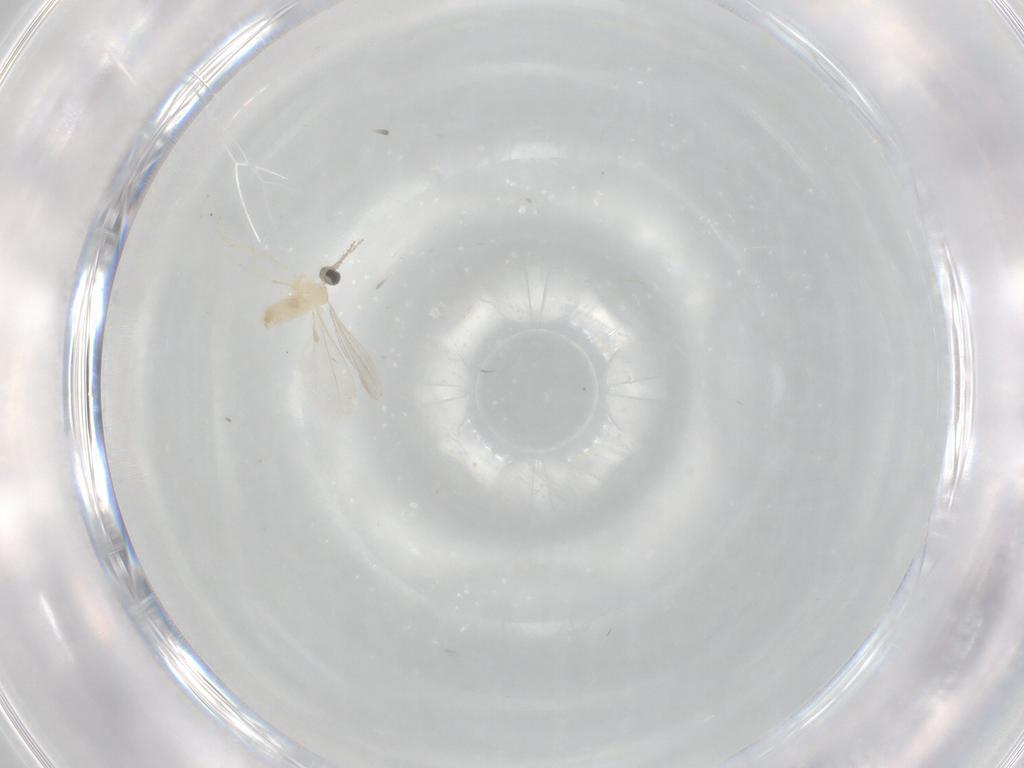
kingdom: Animalia
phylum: Arthropoda
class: Insecta
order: Diptera
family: Cecidomyiidae
